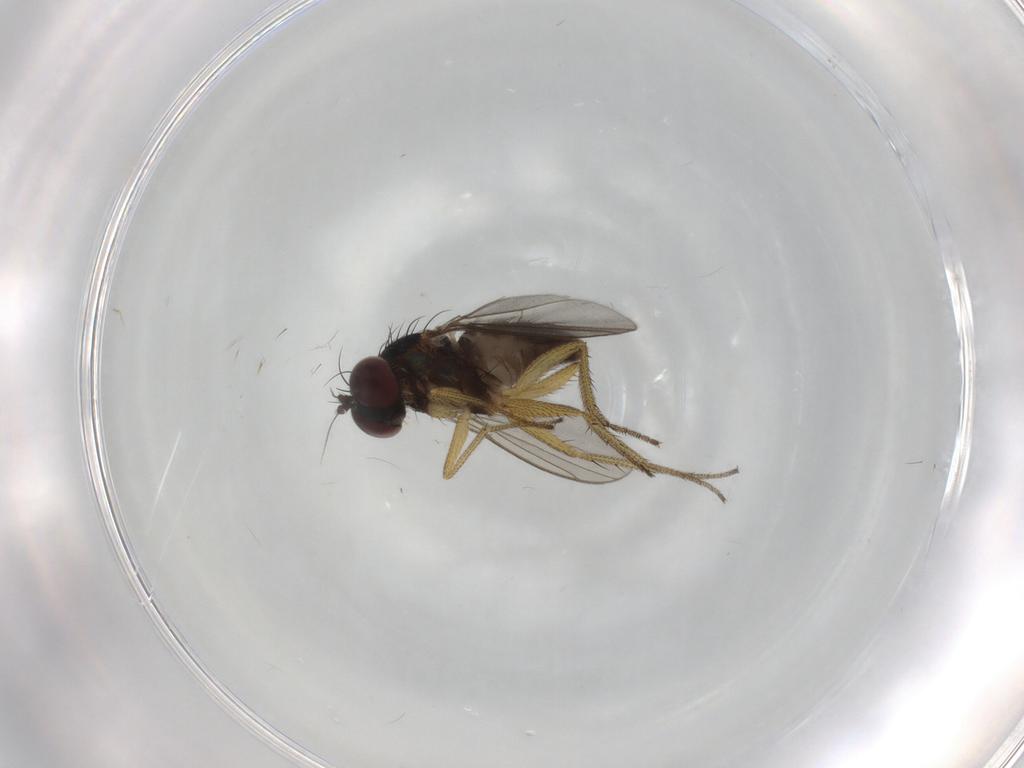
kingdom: Animalia
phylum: Arthropoda
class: Insecta
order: Diptera
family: Dolichopodidae
